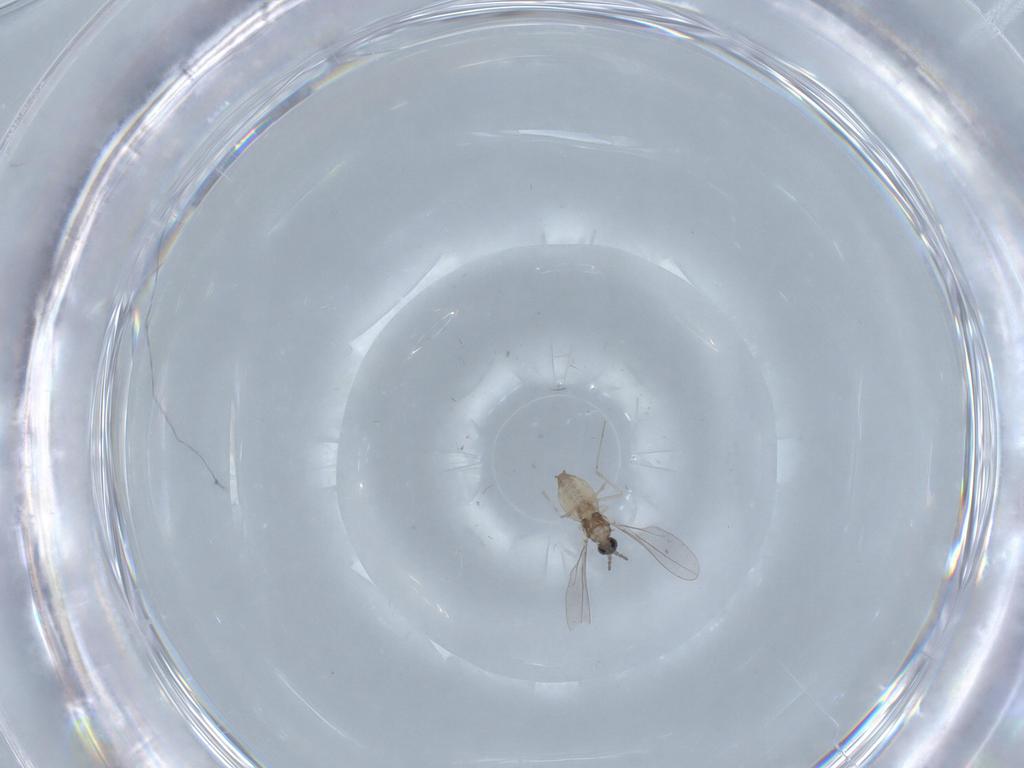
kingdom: Animalia
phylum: Arthropoda
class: Insecta
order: Diptera
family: Cecidomyiidae
